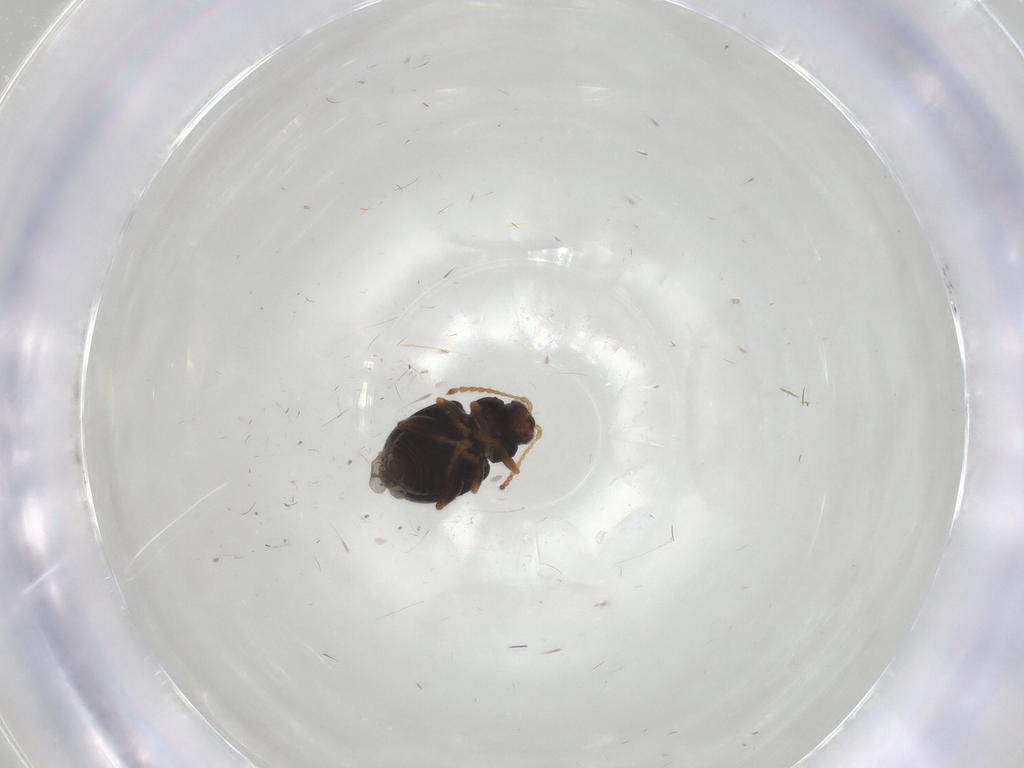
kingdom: Animalia
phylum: Arthropoda
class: Insecta
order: Coleoptera
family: Chrysomelidae
